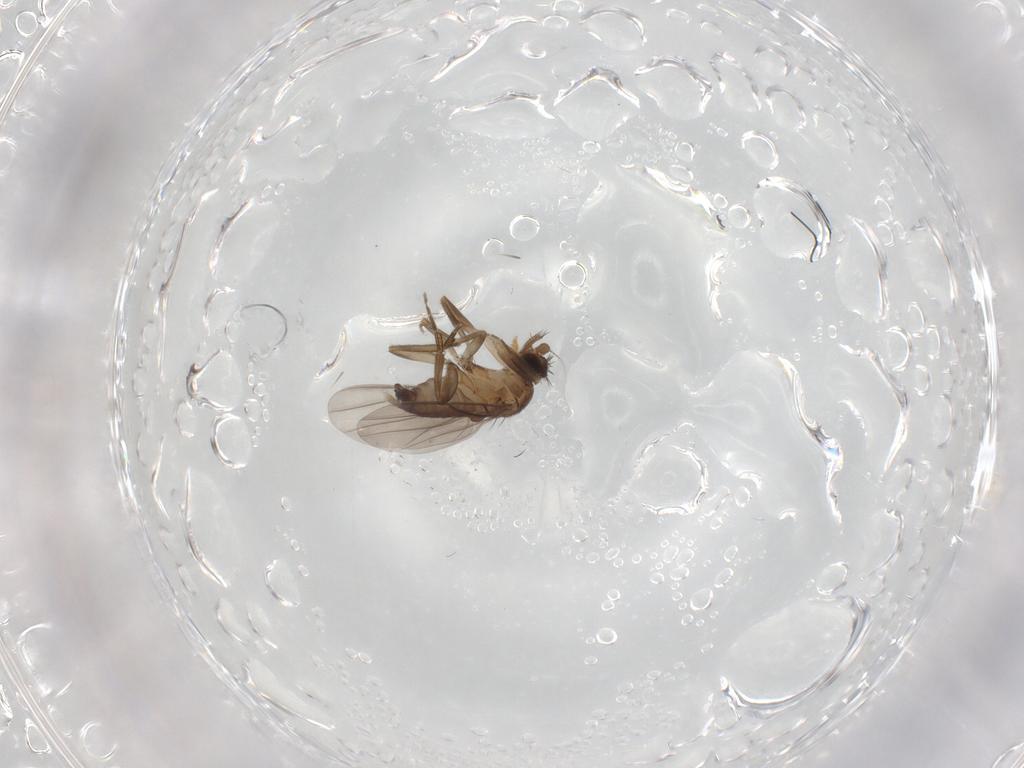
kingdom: Animalia
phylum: Arthropoda
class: Insecta
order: Diptera
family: Phoridae
